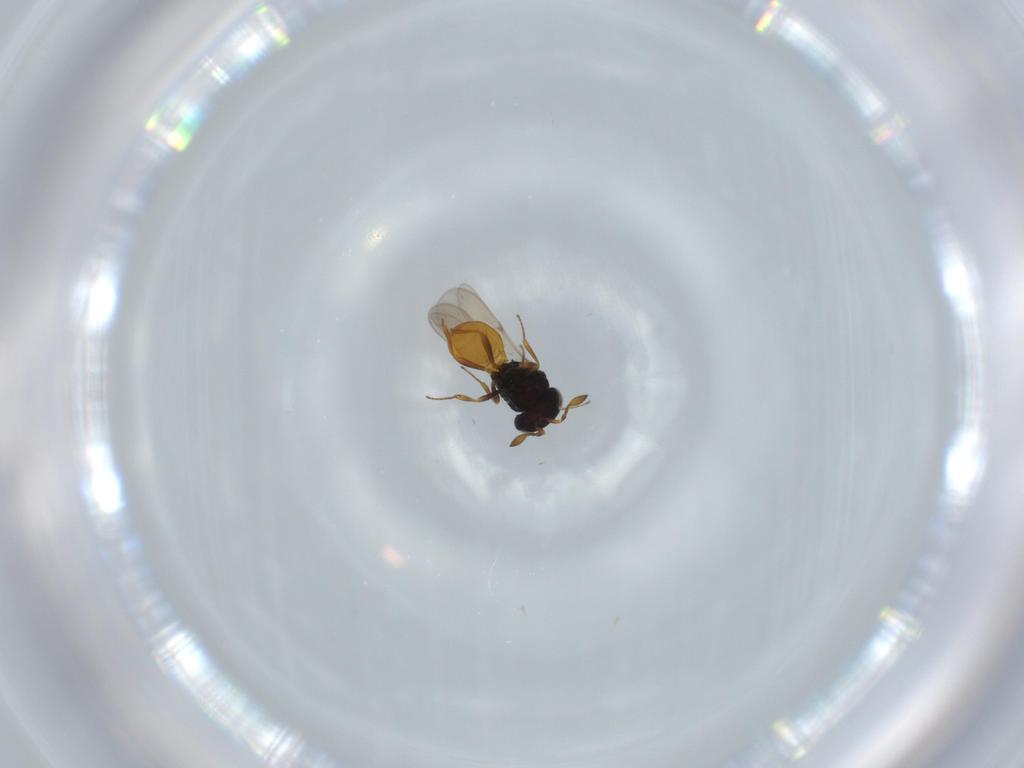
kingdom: Animalia
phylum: Arthropoda
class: Insecta
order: Hymenoptera
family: Scelionidae
